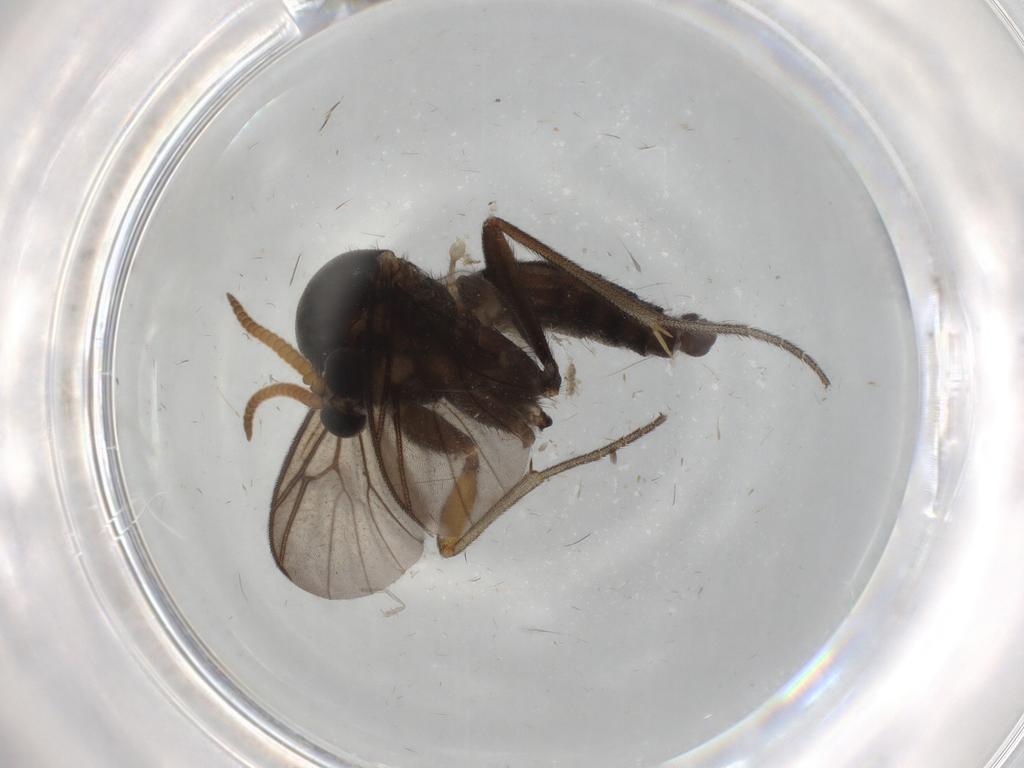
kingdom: Animalia
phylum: Arthropoda
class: Insecta
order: Diptera
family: Phoridae
